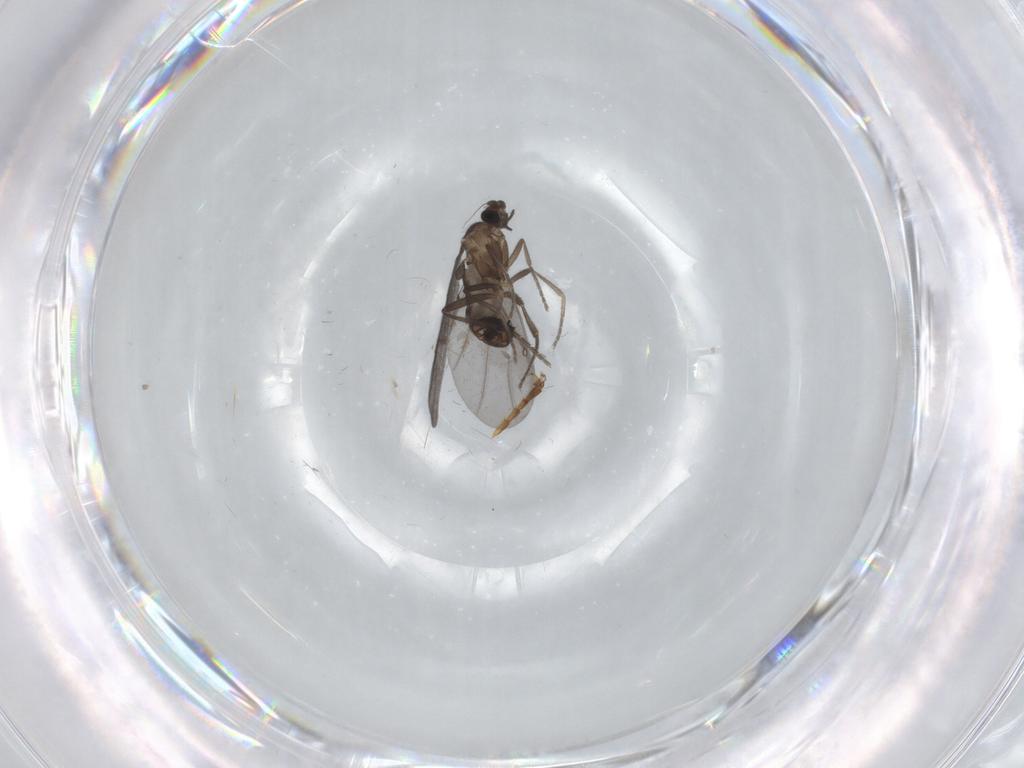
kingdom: Animalia
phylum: Arthropoda
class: Insecta
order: Diptera
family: Phoridae
